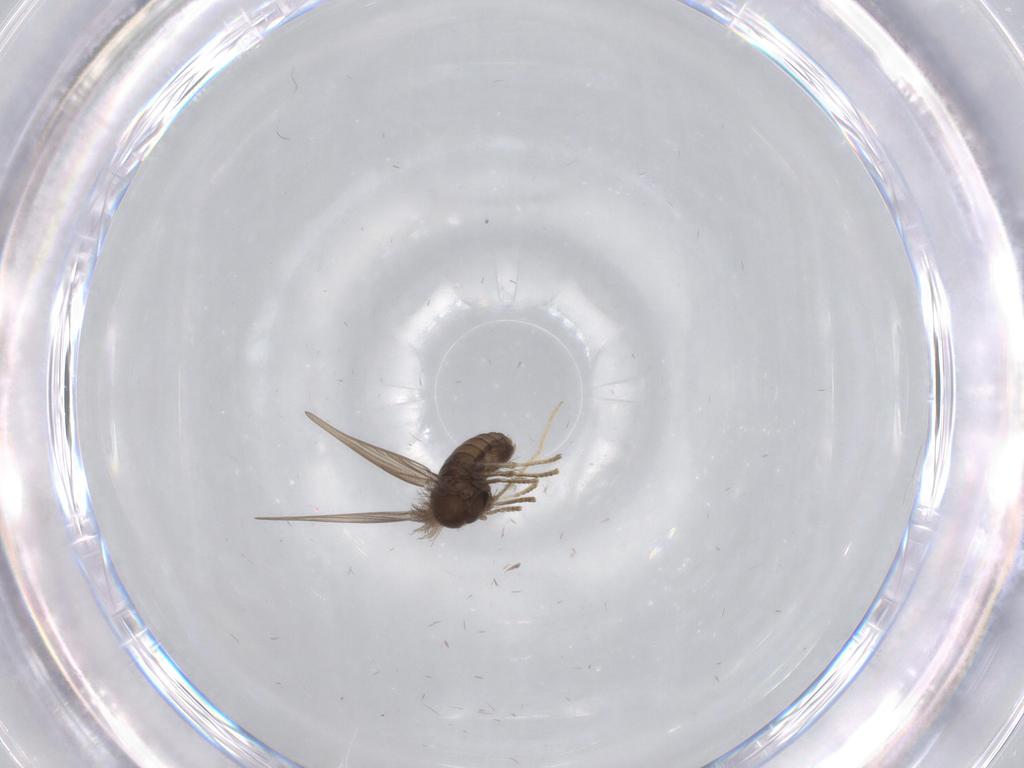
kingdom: Animalia
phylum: Arthropoda
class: Insecta
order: Diptera
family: Psychodidae
